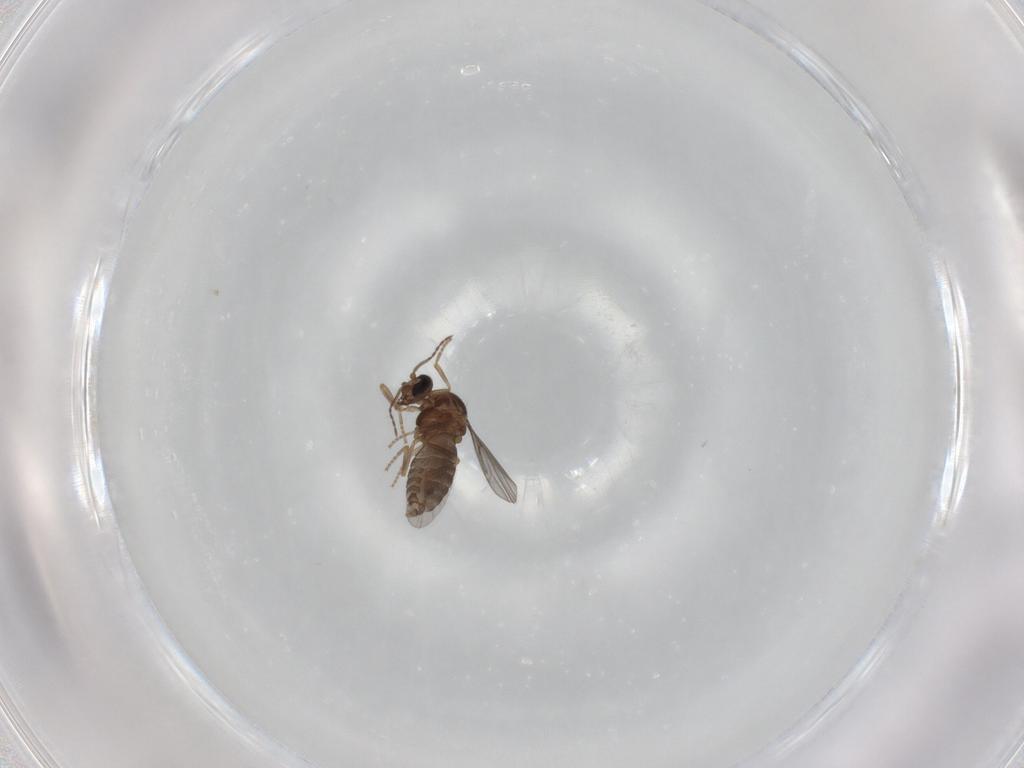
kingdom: Animalia
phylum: Arthropoda
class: Insecta
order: Diptera
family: Ceratopogonidae
